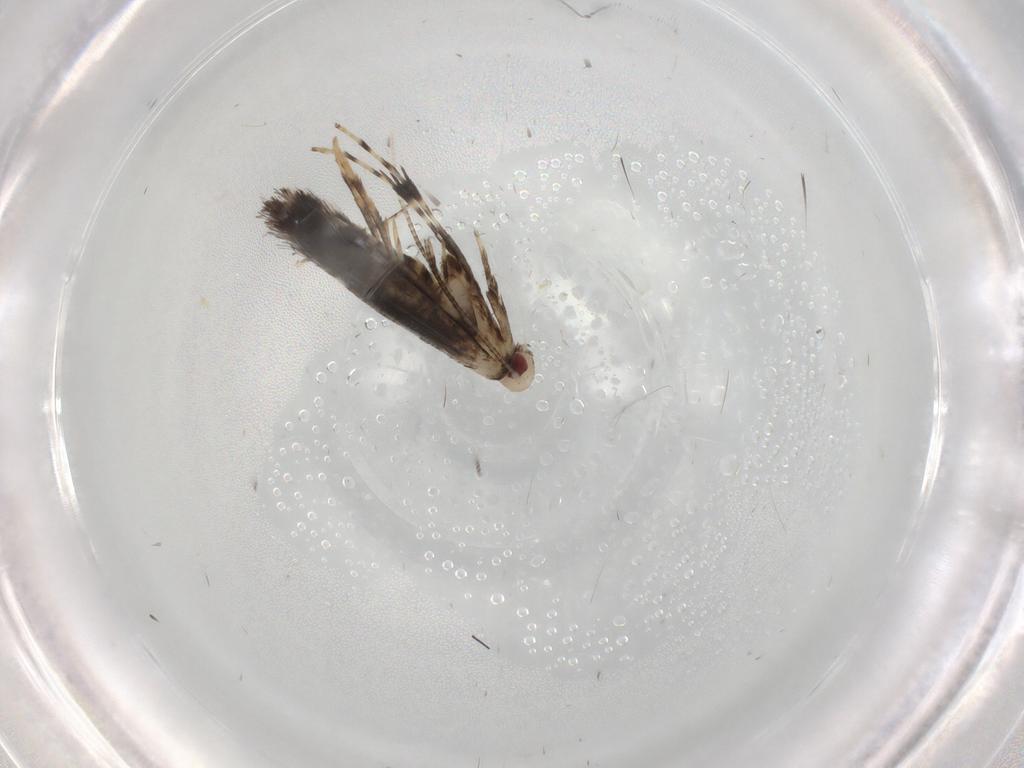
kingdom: Animalia
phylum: Arthropoda
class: Insecta
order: Lepidoptera
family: Gracillariidae
